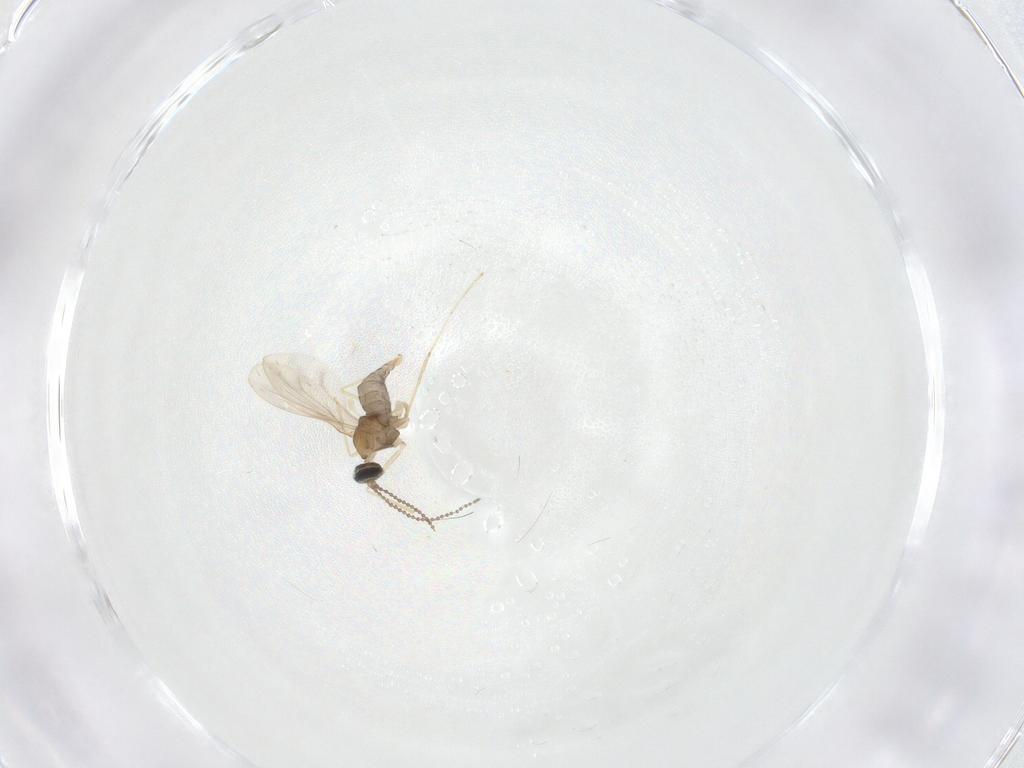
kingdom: Animalia
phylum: Arthropoda
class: Insecta
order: Diptera
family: Cecidomyiidae
